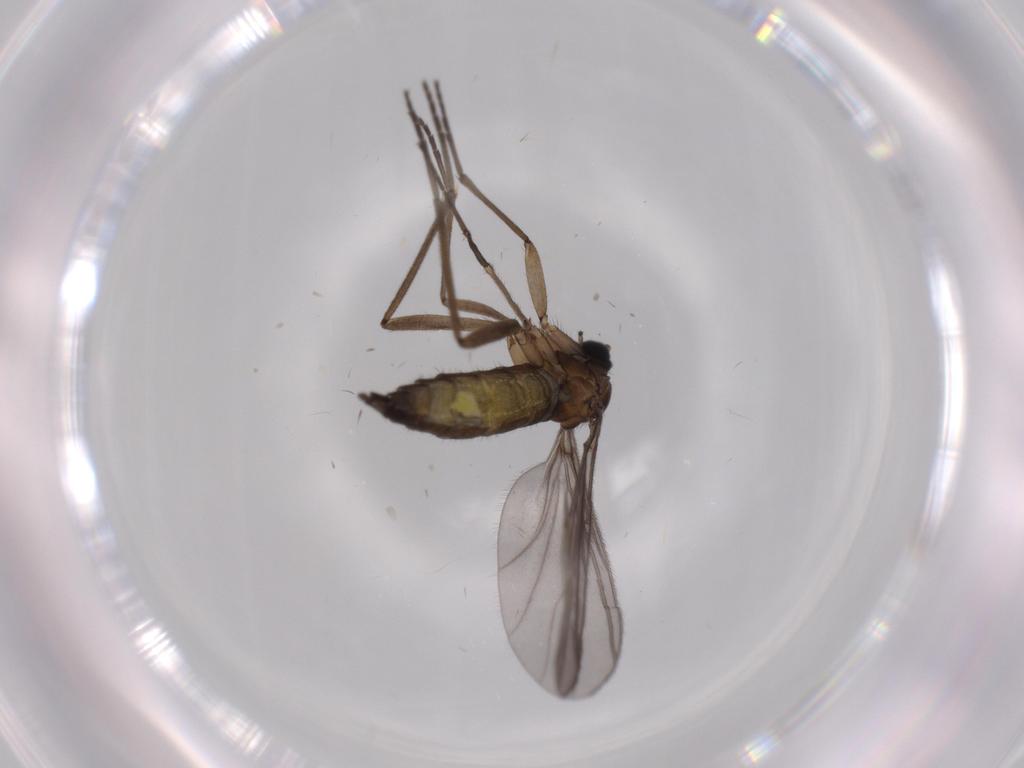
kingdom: Animalia
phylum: Arthropoda
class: Insecta
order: Diptera
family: Sciaridae
